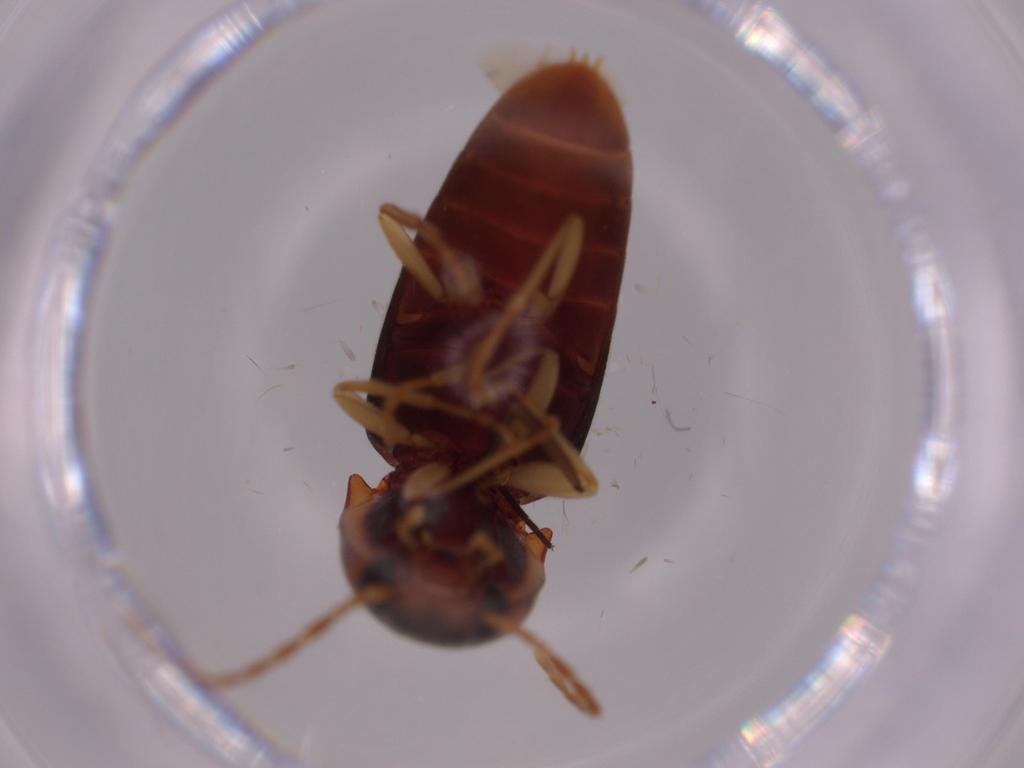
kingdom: Animalia
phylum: Arthropoda
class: Insecta
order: Coleoptera
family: Elateridae
